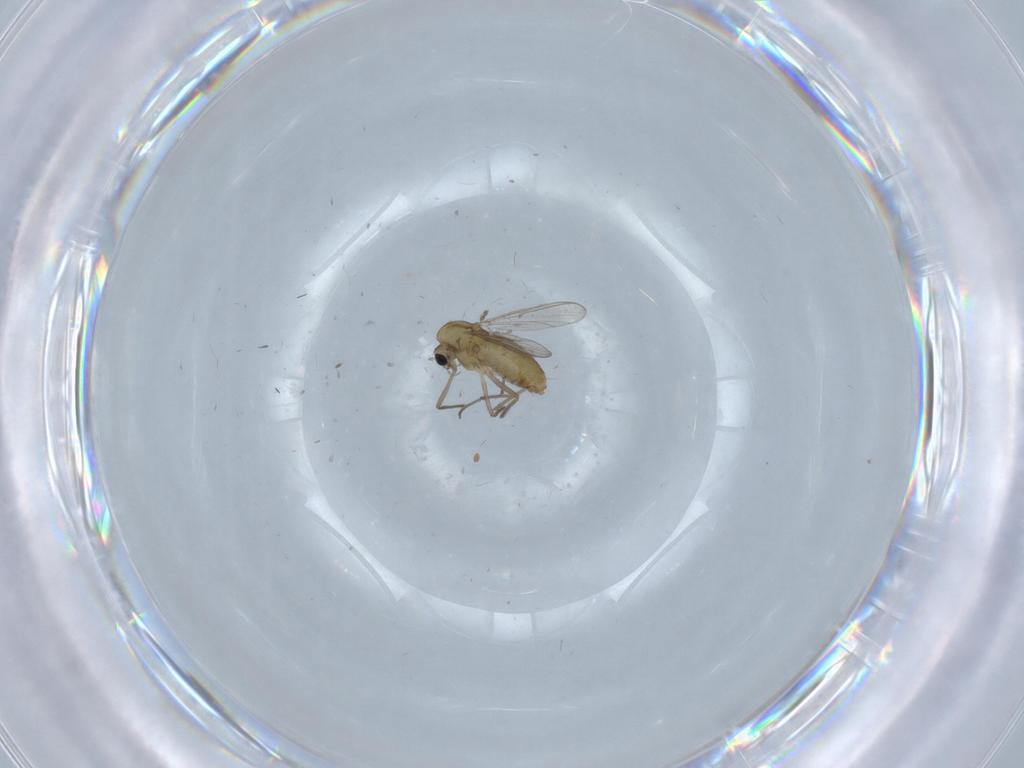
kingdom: Animalia
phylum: Arthropoda
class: Insecta
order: Diptera
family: Chironomidae
